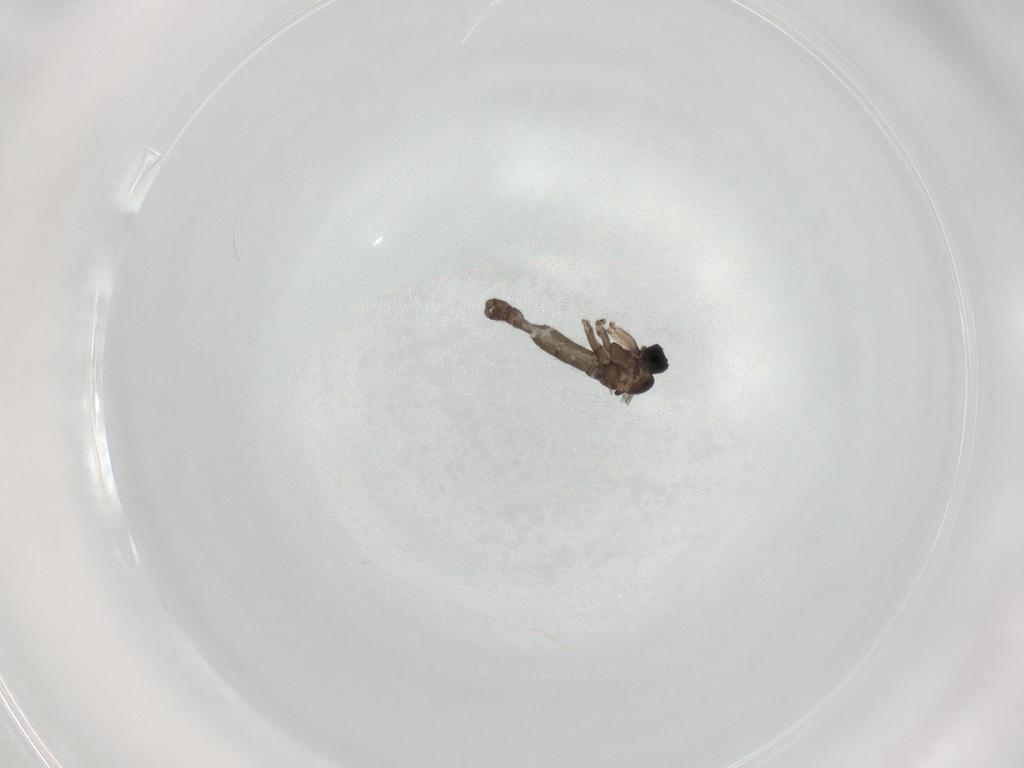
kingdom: Animalia
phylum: Arthropoda
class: Insecta
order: Diptera
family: Sciaridae
